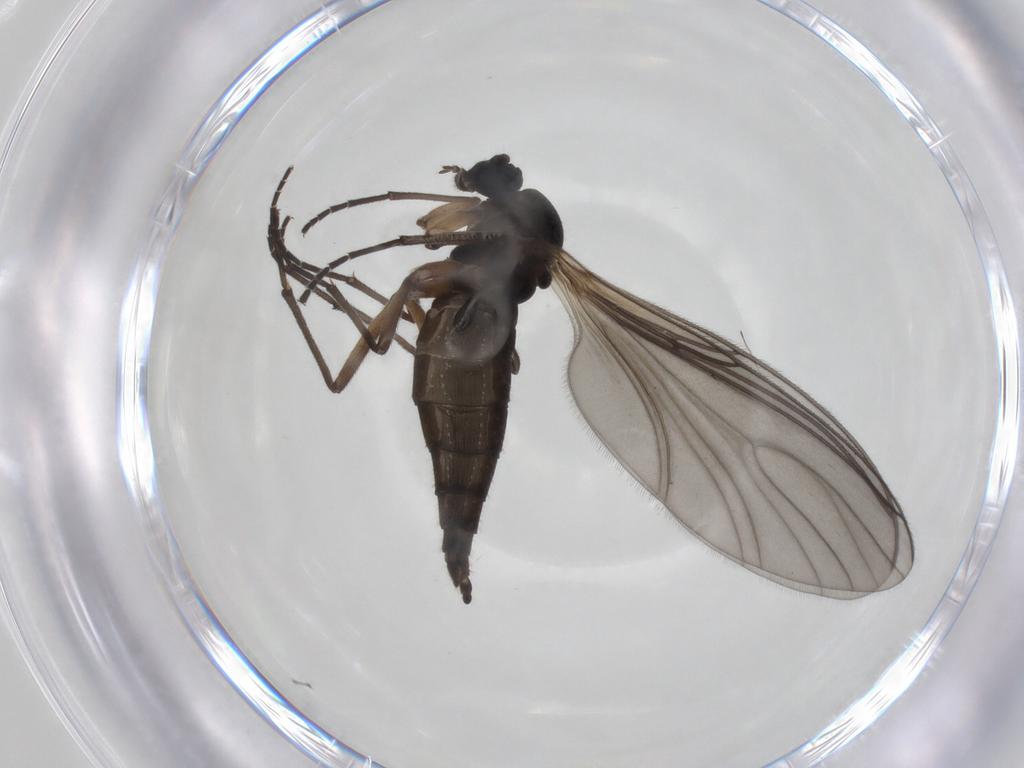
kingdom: Animalia
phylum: Arthropoda
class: Insecta
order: Diptera
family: Sciaridae
